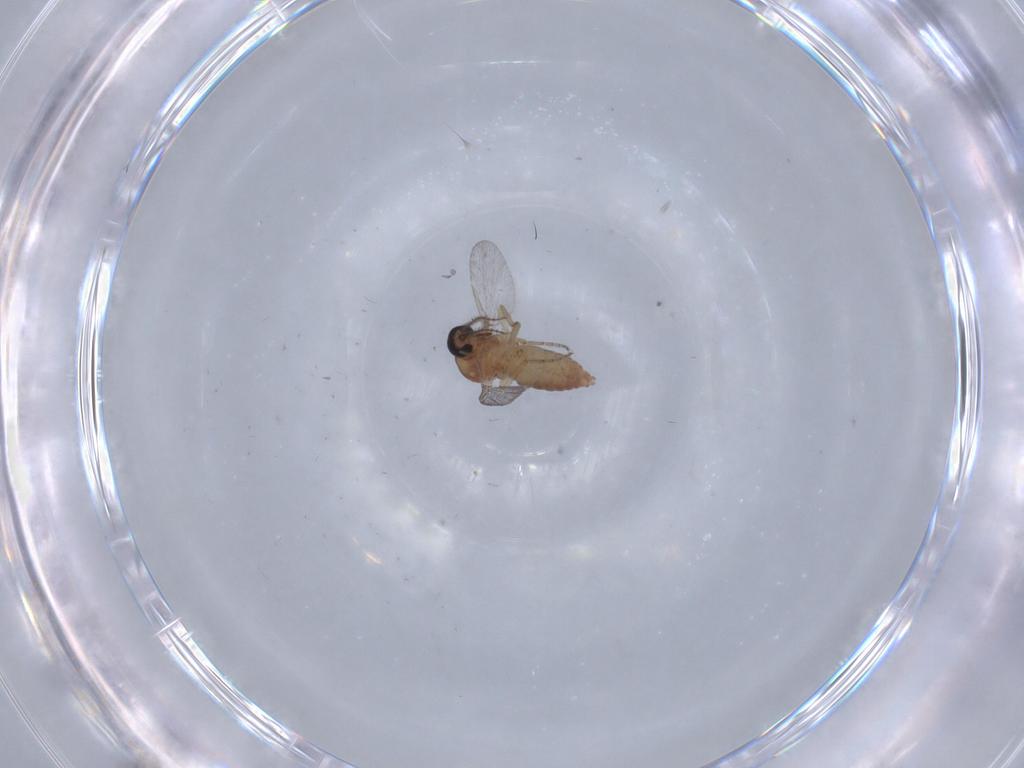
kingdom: Animalia
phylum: Arthropoda
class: Insecta
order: Diptera
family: Ceratopogonidae
